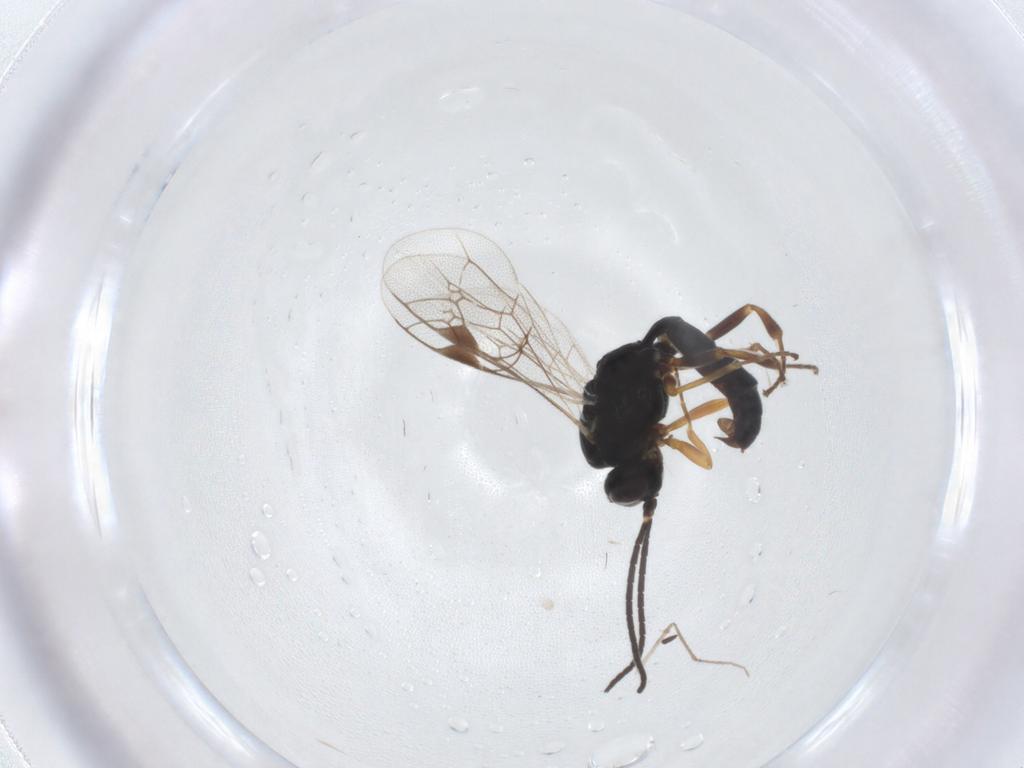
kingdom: Animalia
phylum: Arthropoda
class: Insecta
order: Hymenoptera
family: Ichneumonidae
